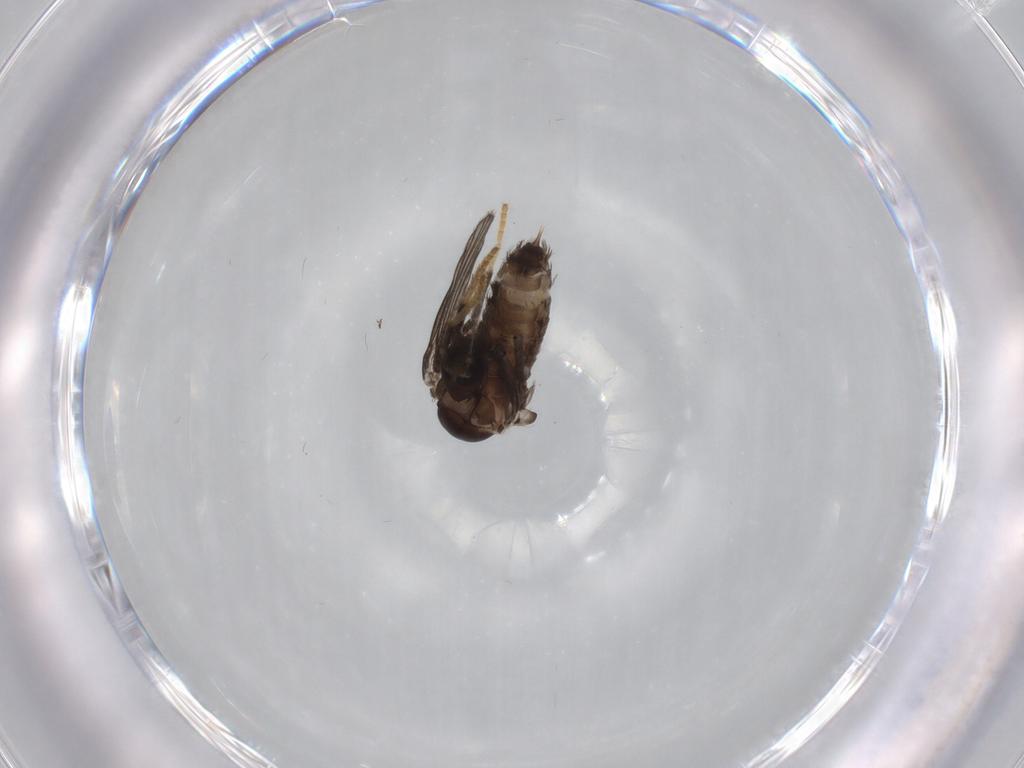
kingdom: Animalia
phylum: Arthropoda
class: Insecta
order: Diptera
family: Psychodidae
